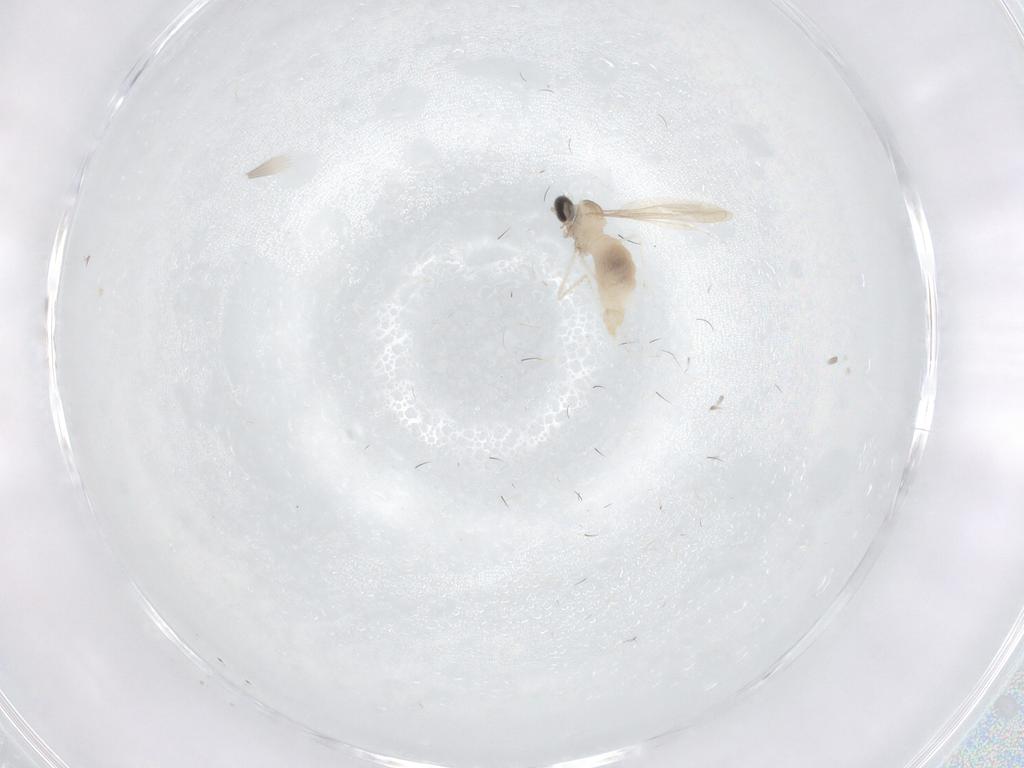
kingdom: Animalia
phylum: Arthropoda
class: Insecta
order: Diptera
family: Cecidomyiidae
